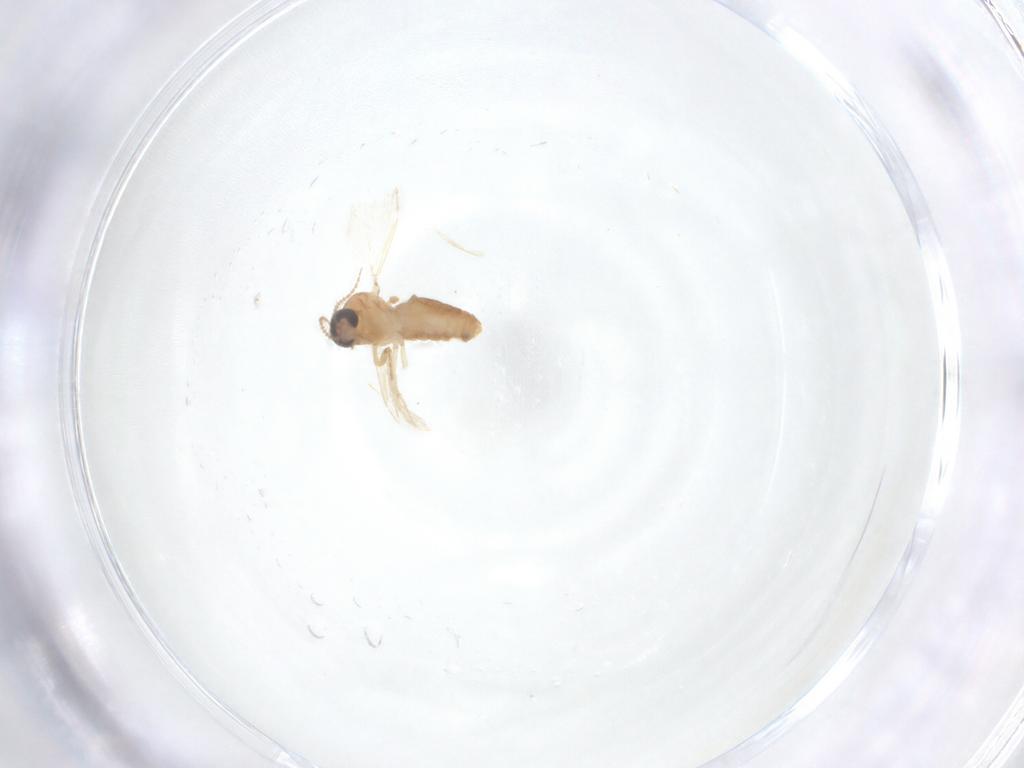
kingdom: Animalia
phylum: Arthropoda
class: Insecta
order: Diptera
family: Ceratopogonidae
